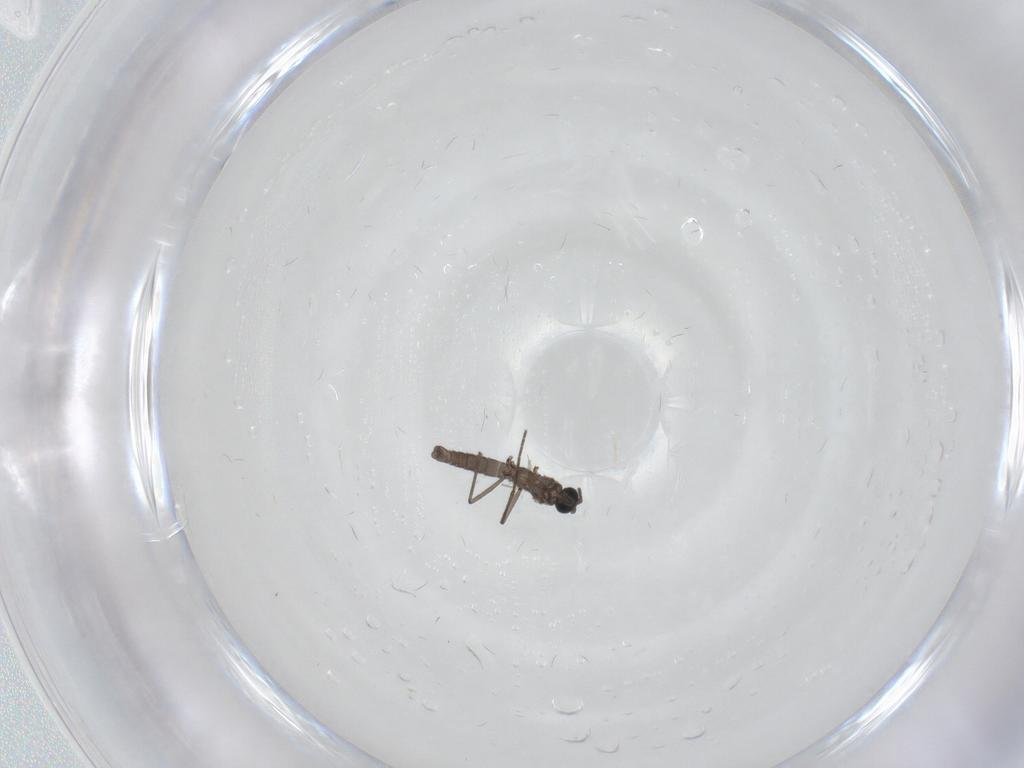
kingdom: Animalia
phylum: Arthropoda
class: Insecta
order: Diptera
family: Sciaridae
